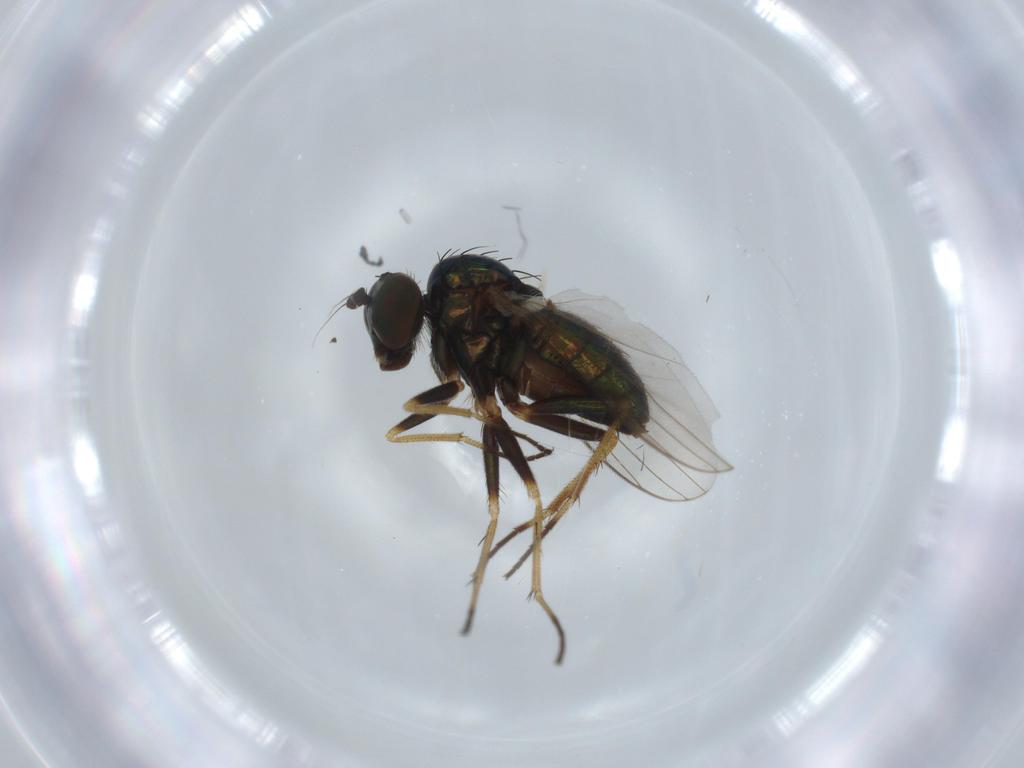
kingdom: Animalia
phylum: Arthropoda
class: Insecta
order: Diptera
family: Dolichopodidae
